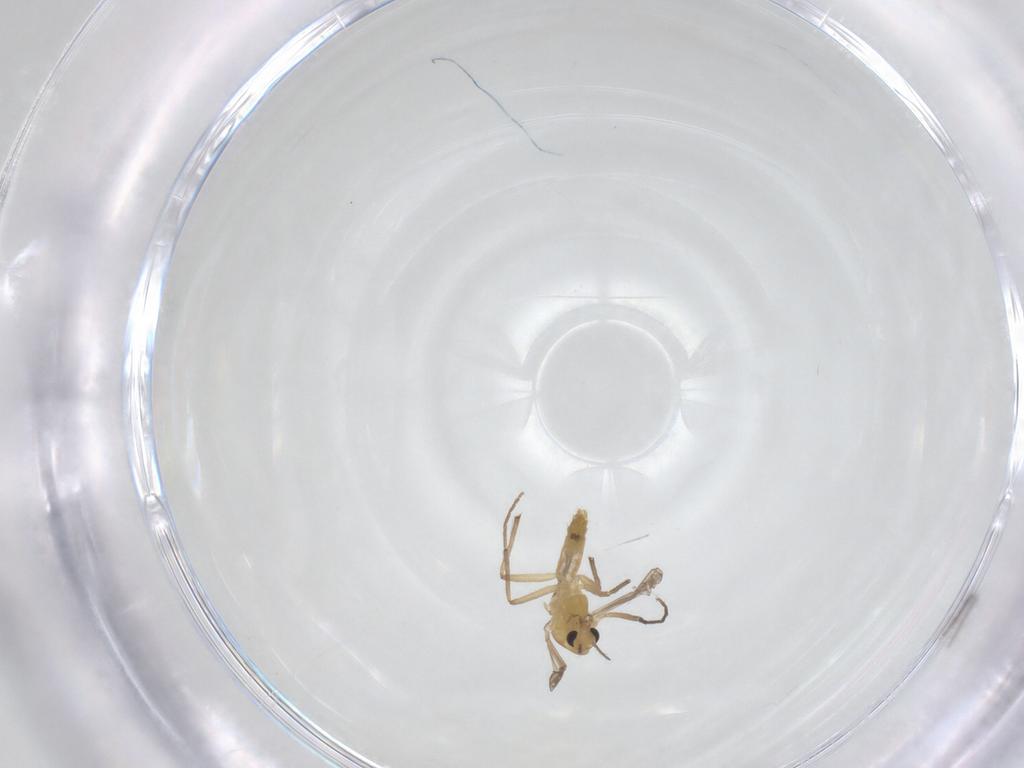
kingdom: Animalia
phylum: Arthropoda
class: Insecta
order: Diptera
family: Chironomidae
